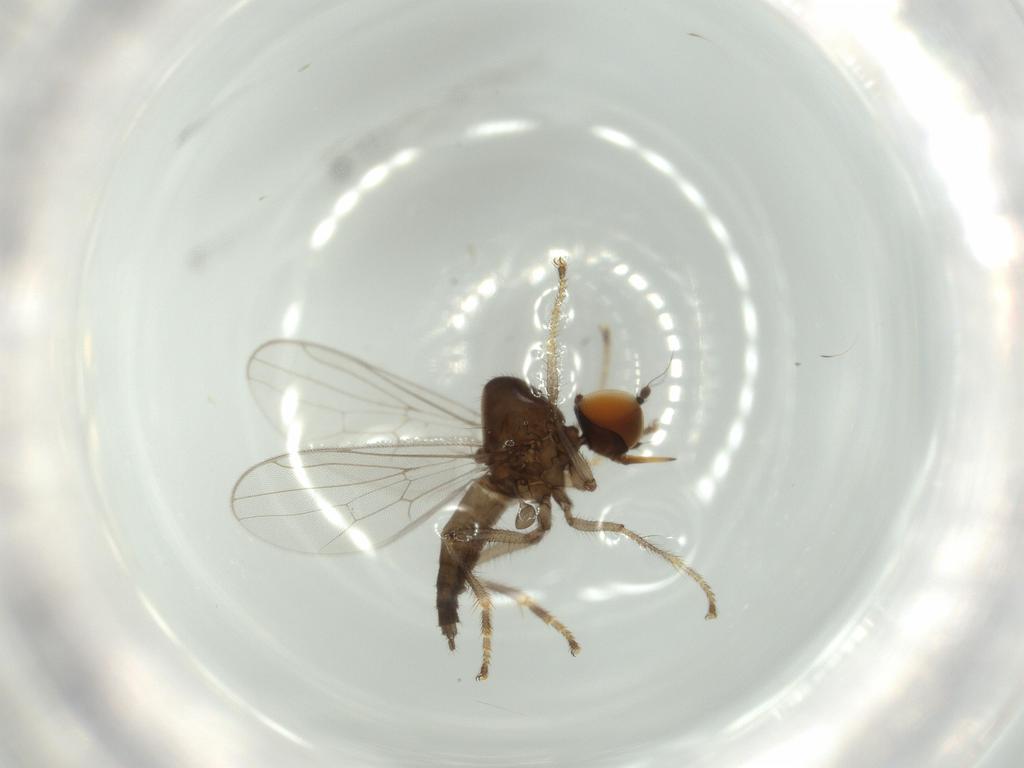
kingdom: Animalia
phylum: Arthropoda
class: Insecta
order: Diptera
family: Hybotidae
